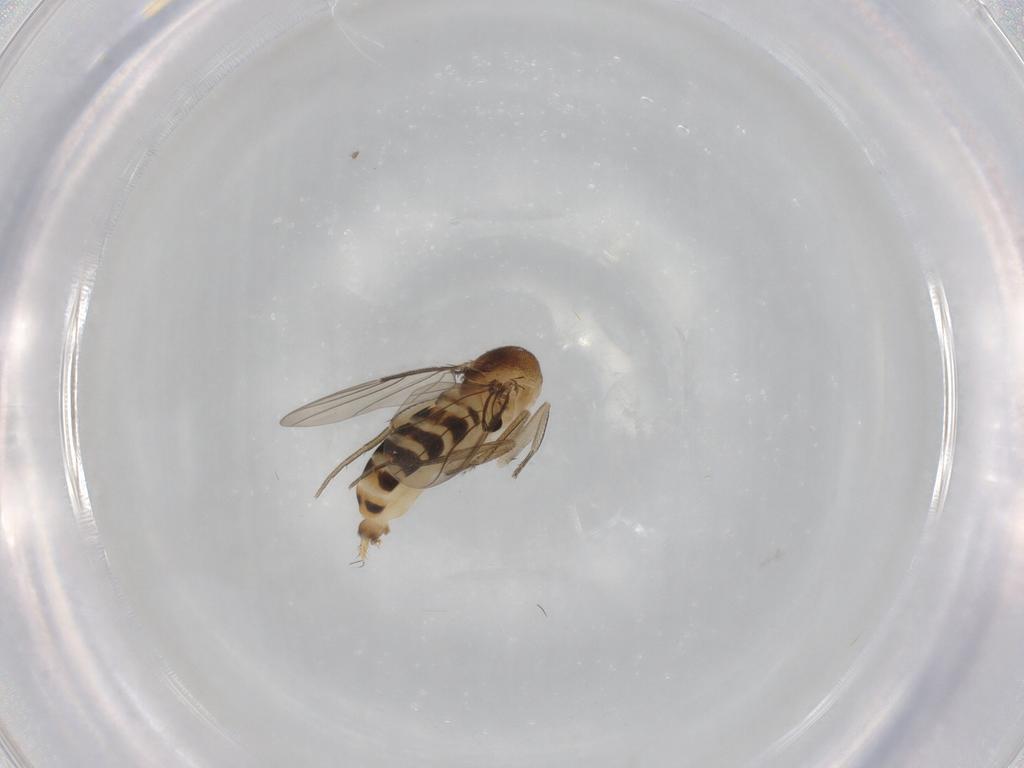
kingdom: Animalia
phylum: Arthropoda
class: Insecta
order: Diptera
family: Phoridae
